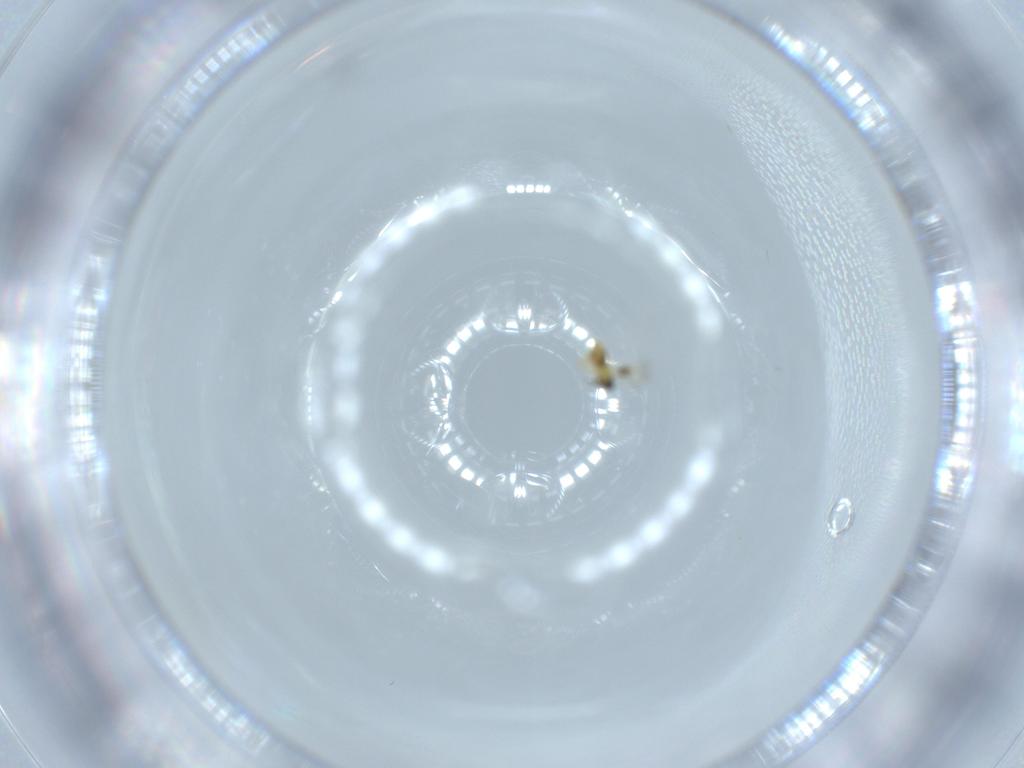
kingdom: Animalia
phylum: Arthropoda
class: Insecta
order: Hymenoptera
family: Signiphoridae
